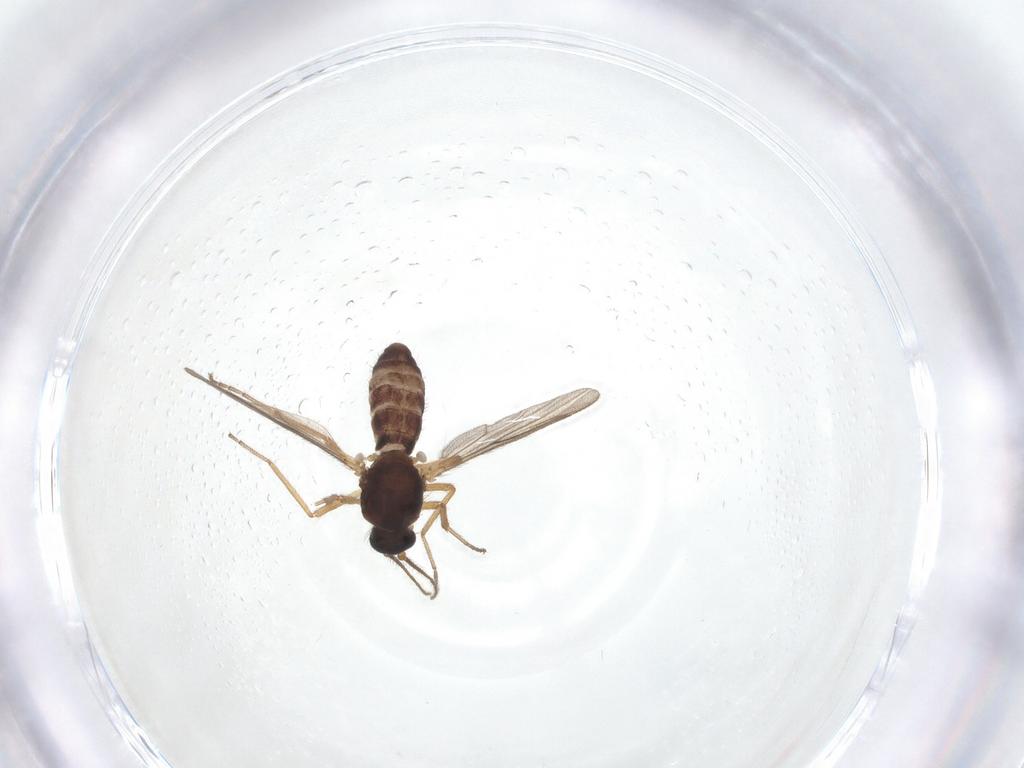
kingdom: Animalia
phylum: Arthropoda
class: Insecta
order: Diptera
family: Ceratopogonidae
